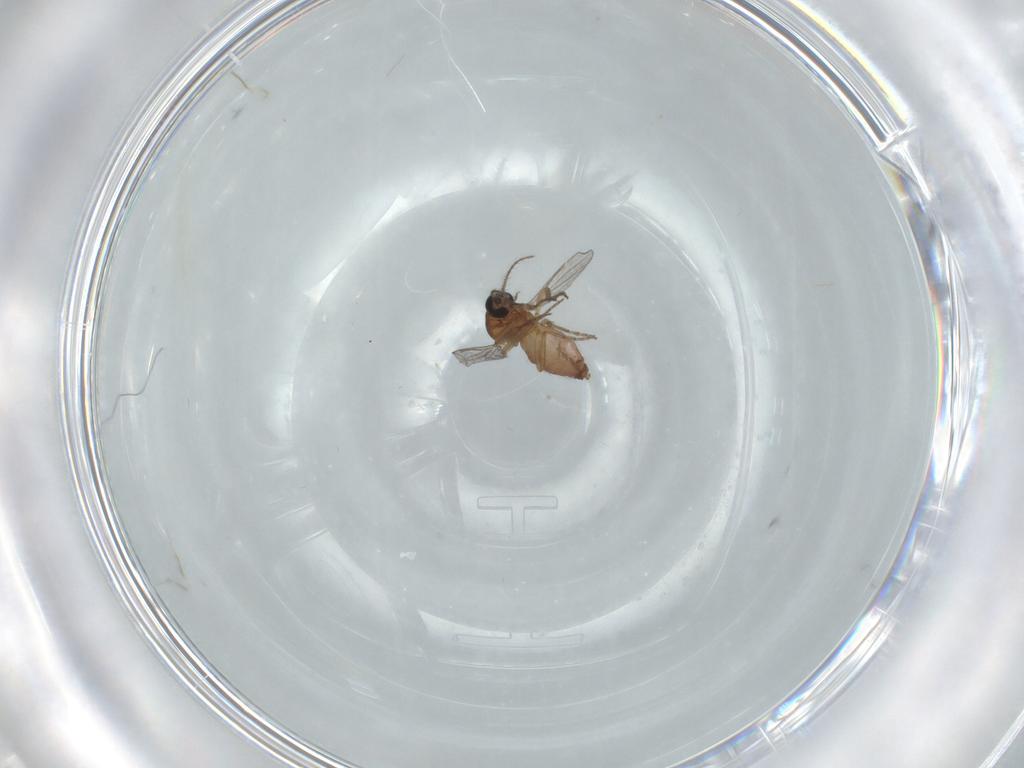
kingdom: Animalia
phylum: Arthropoda
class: Insecta
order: Diptera
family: Ceratopogonidae
